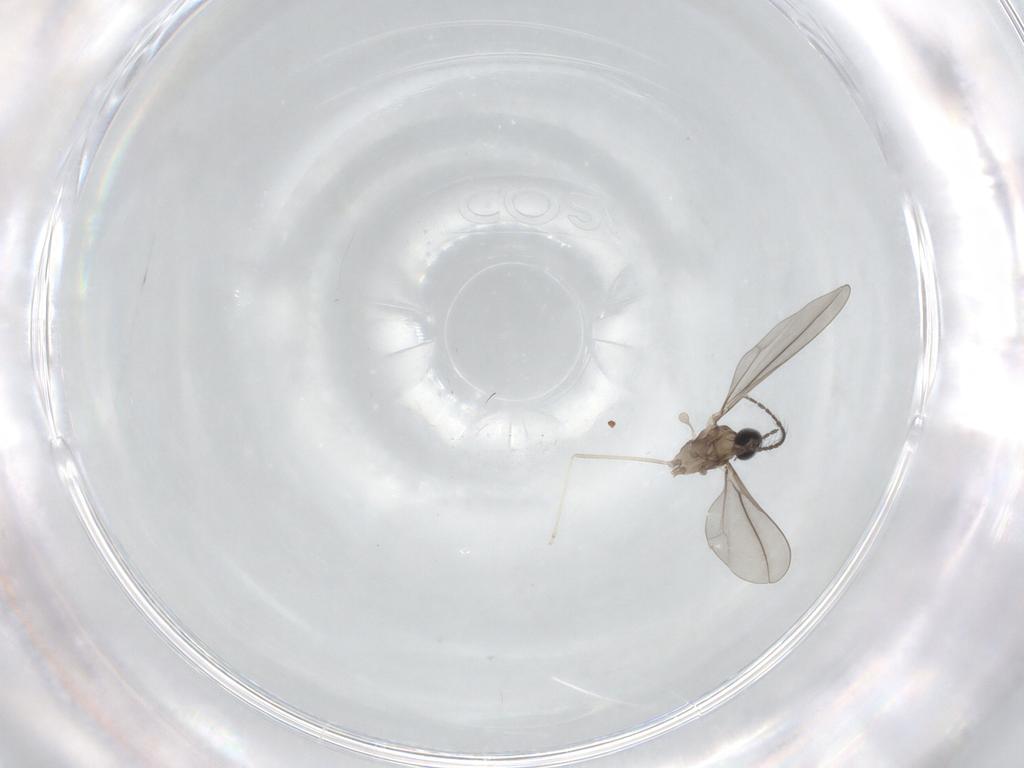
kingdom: Animalia
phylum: Arthropoda
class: Insecta
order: Diptera
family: Cecidomyiidae
